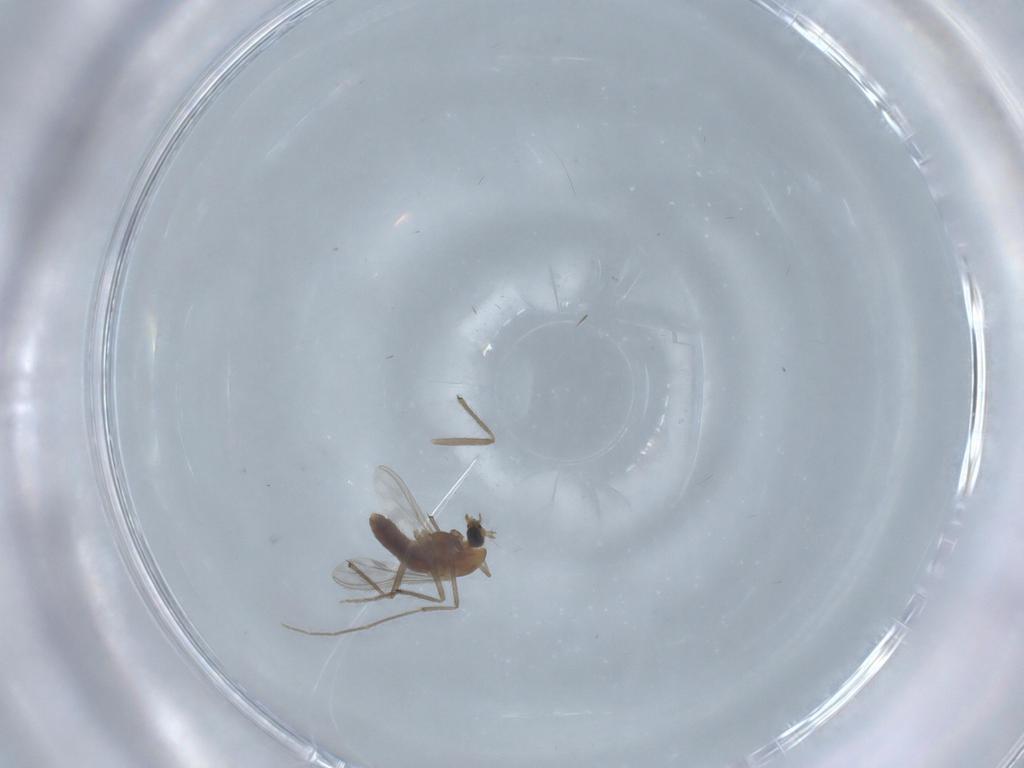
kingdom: Animalia
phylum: Arthropoda
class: Insecta
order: Diptera
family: Chironomidae
